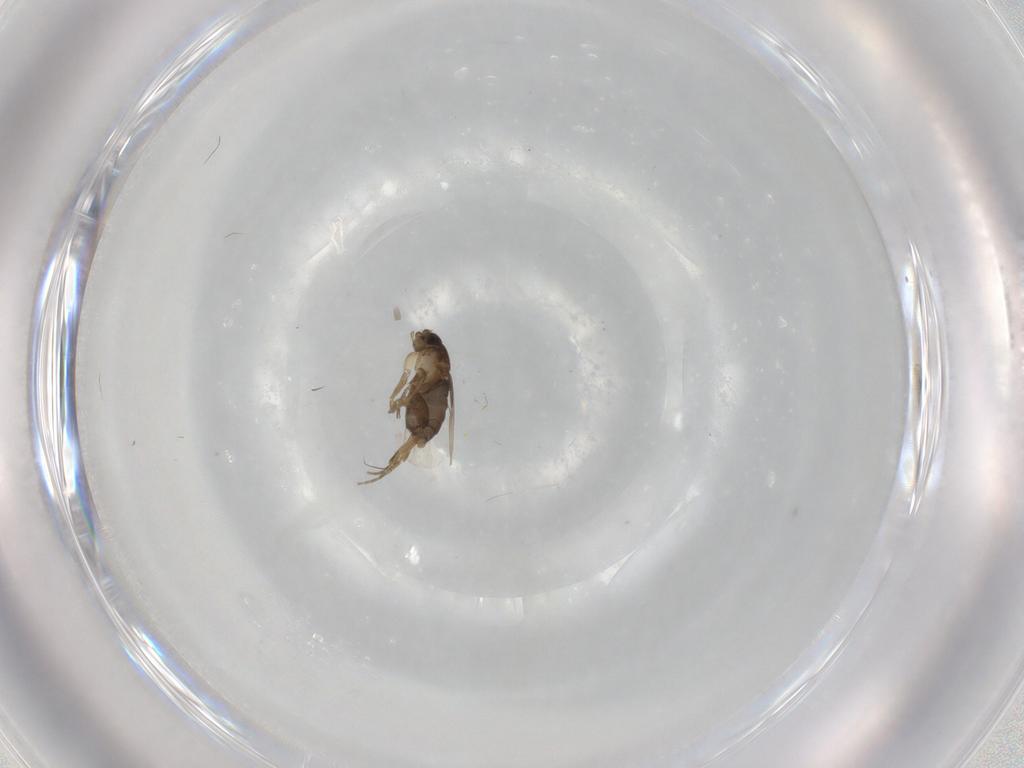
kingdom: Animalia
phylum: Arthropoda
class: Insecta
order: Diptera
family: Phoridae
